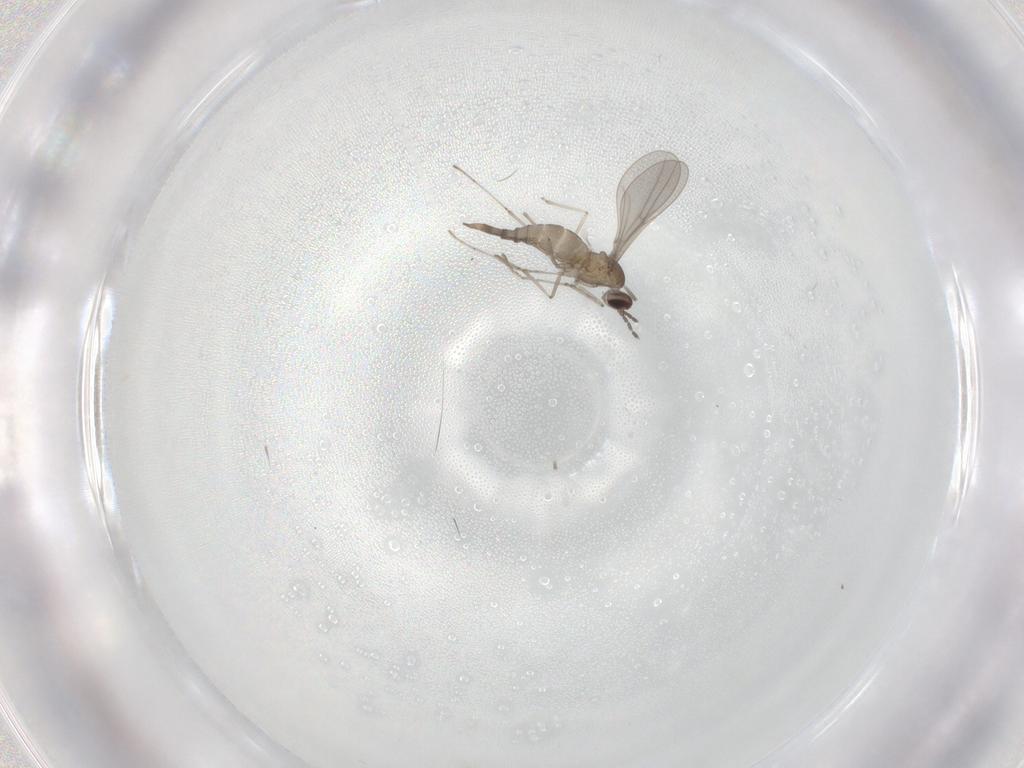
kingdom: Animalia
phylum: Arthropoda
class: Insecta
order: Diptera
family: Cecidomyiidae
